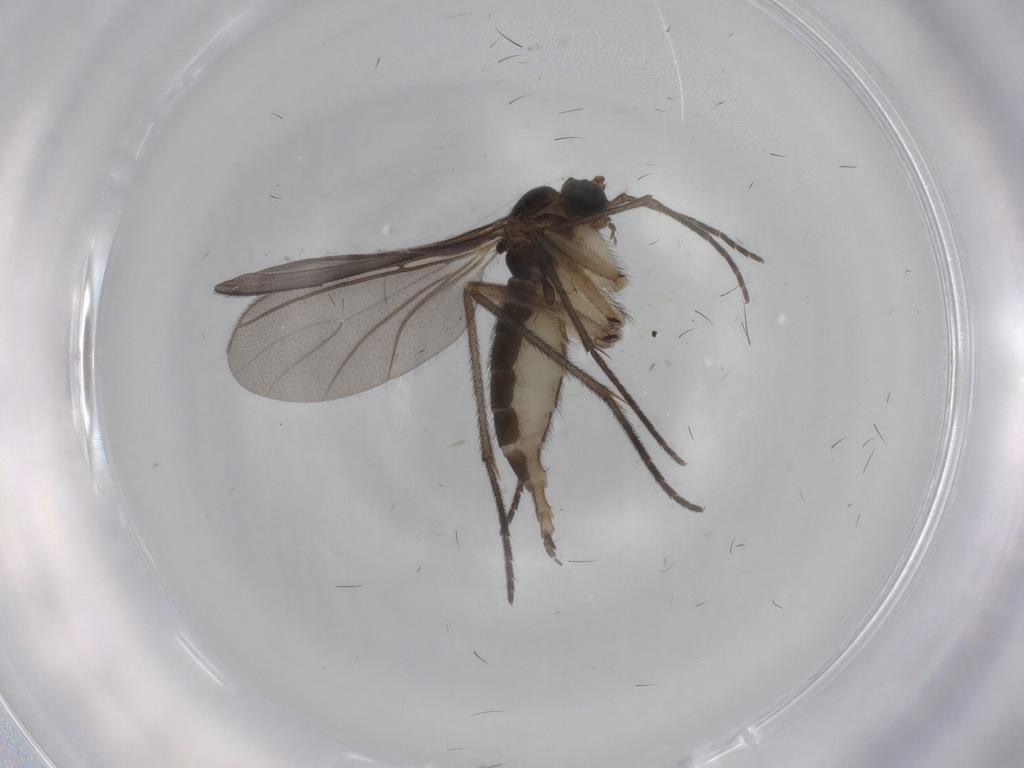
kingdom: Animalia
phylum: Arthropoda
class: Insecta
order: Diptera
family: Sciaridae
